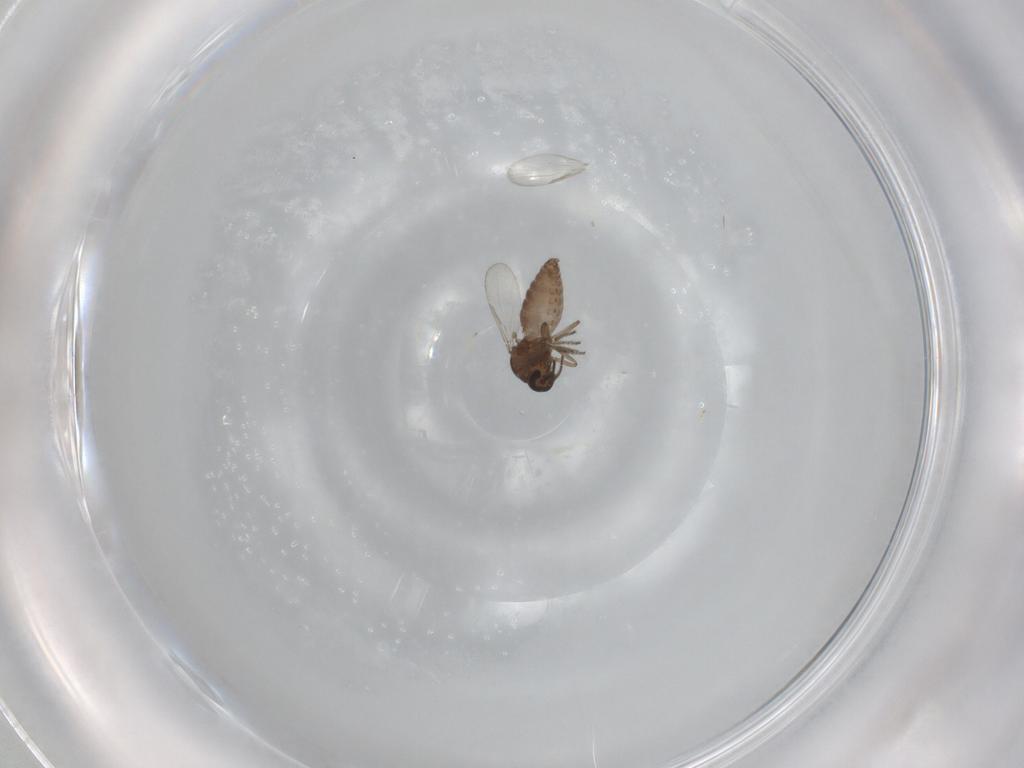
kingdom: Animalia
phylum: Arthropoda
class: Insecta
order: Diptera
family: Ceratopogonidae
